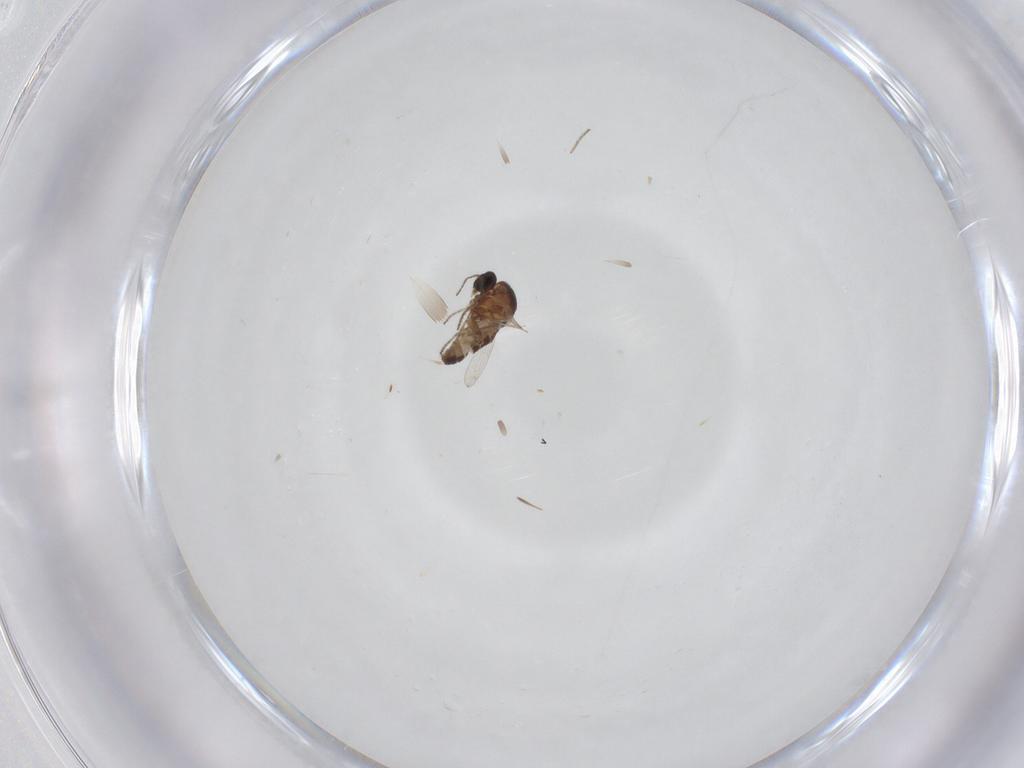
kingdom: Animalia
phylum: Arthropoda
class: Insecta
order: Diptera
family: Ceratopogonidae
